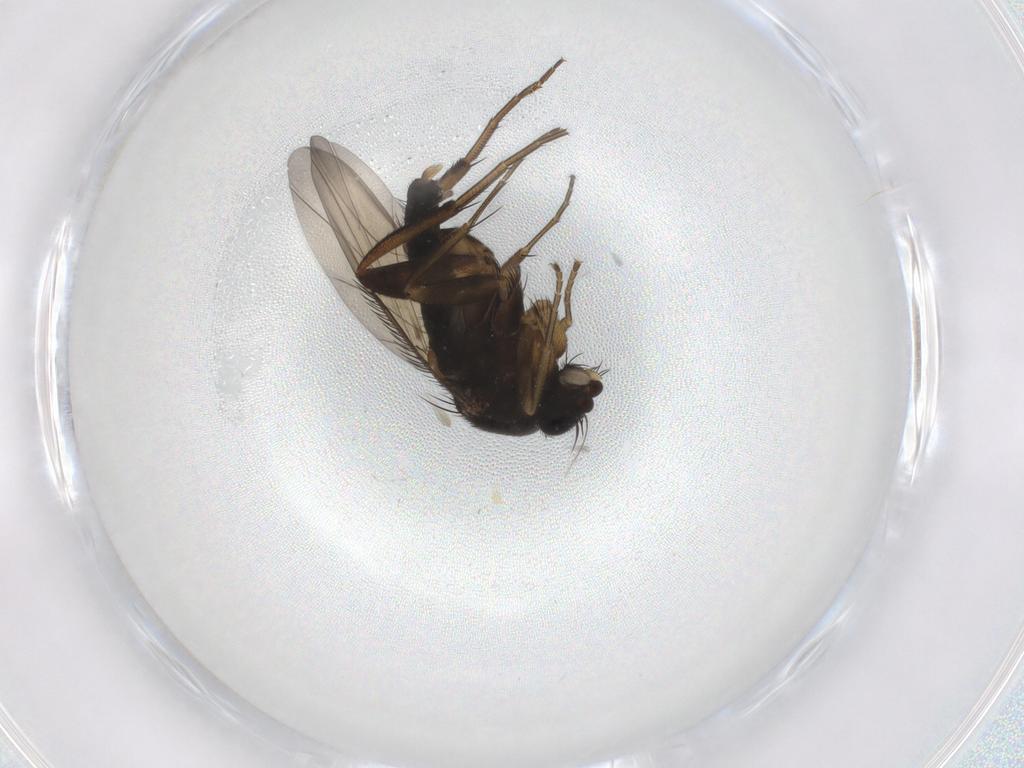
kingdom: Animalia
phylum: Arthropoda
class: Insecta
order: Diptera
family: Phoridae
